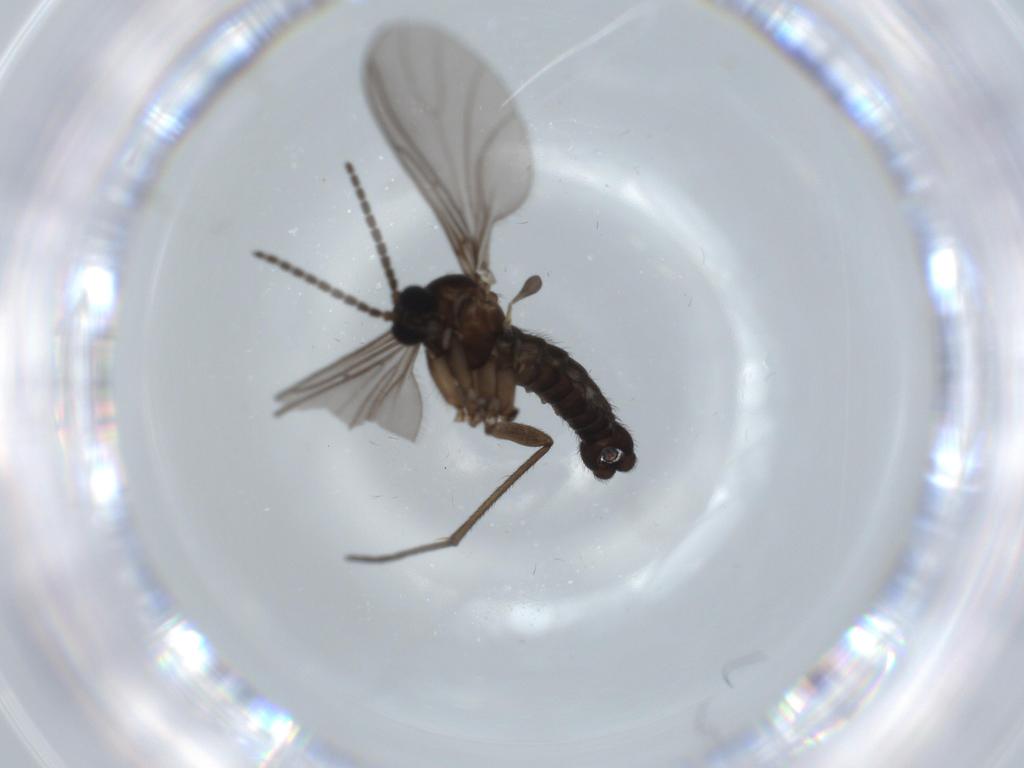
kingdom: Animalia
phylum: Arthropoda
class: Insecta
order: Diptera
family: Sciaridae
